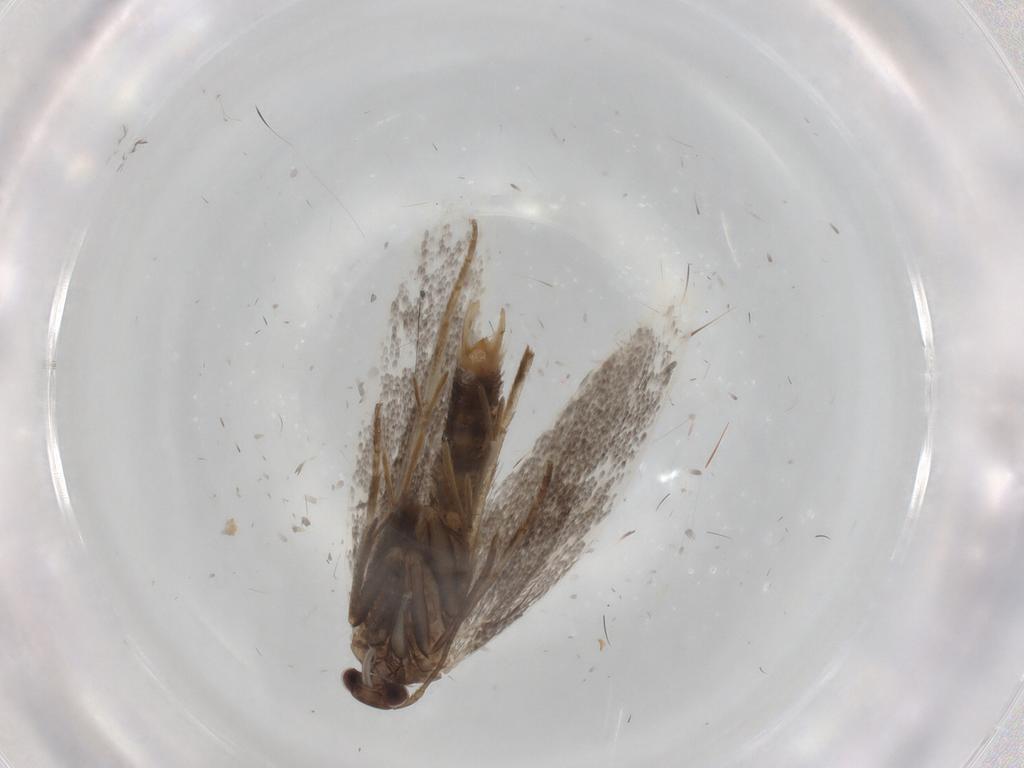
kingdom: Animalia
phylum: Arthropoda
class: Insecta
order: Lepidoptera
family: Elachistidae
